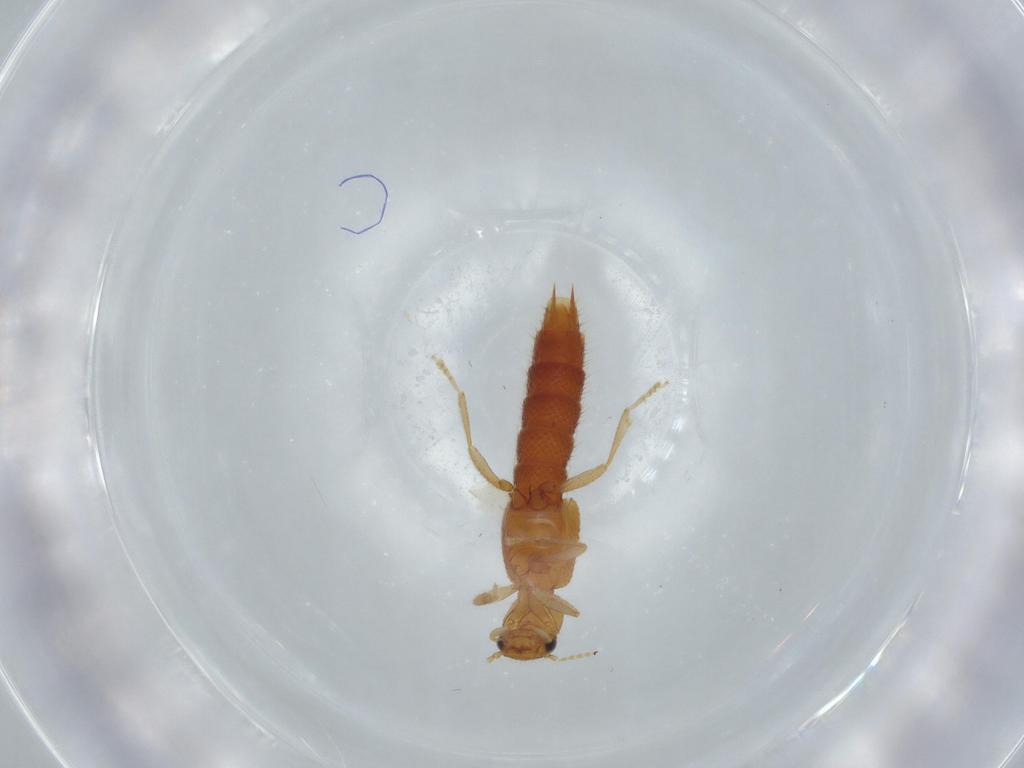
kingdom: Animalia
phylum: Arthropoda
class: Insecta
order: Coleoptera
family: Staphylinidae
